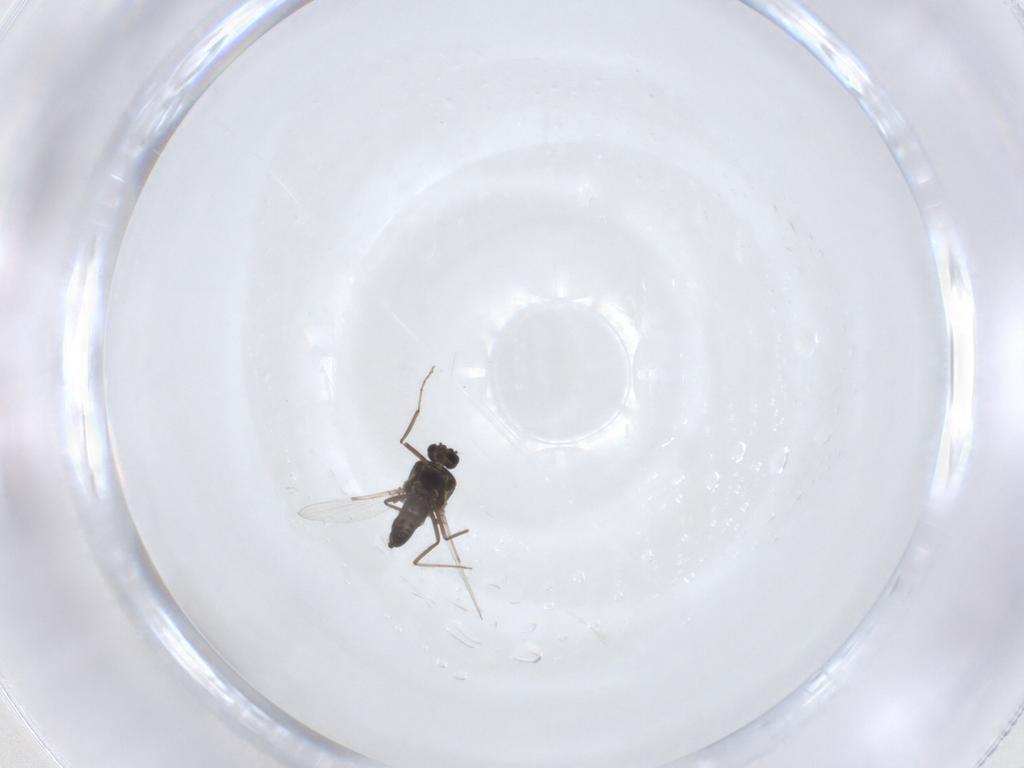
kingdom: Animalia
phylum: Arthropoda
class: Insecta
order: Diptera
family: Ceratopogonidae
